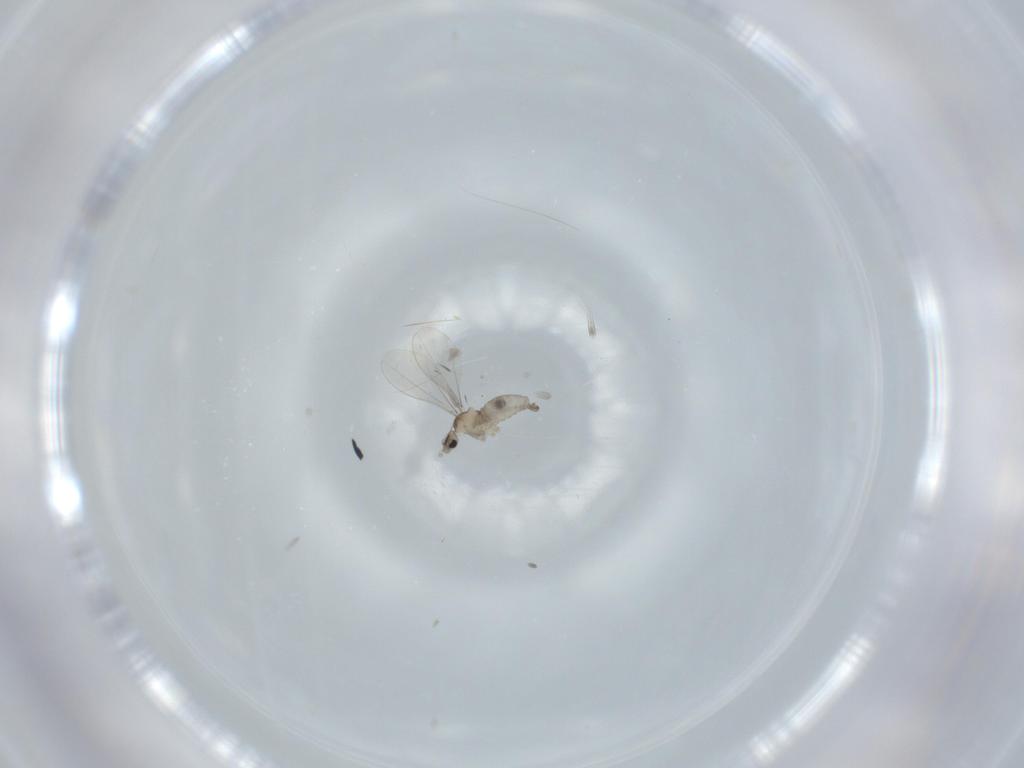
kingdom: Animalia
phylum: Arthropoda
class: Insecta
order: Diptera
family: Cecidomyiidae
